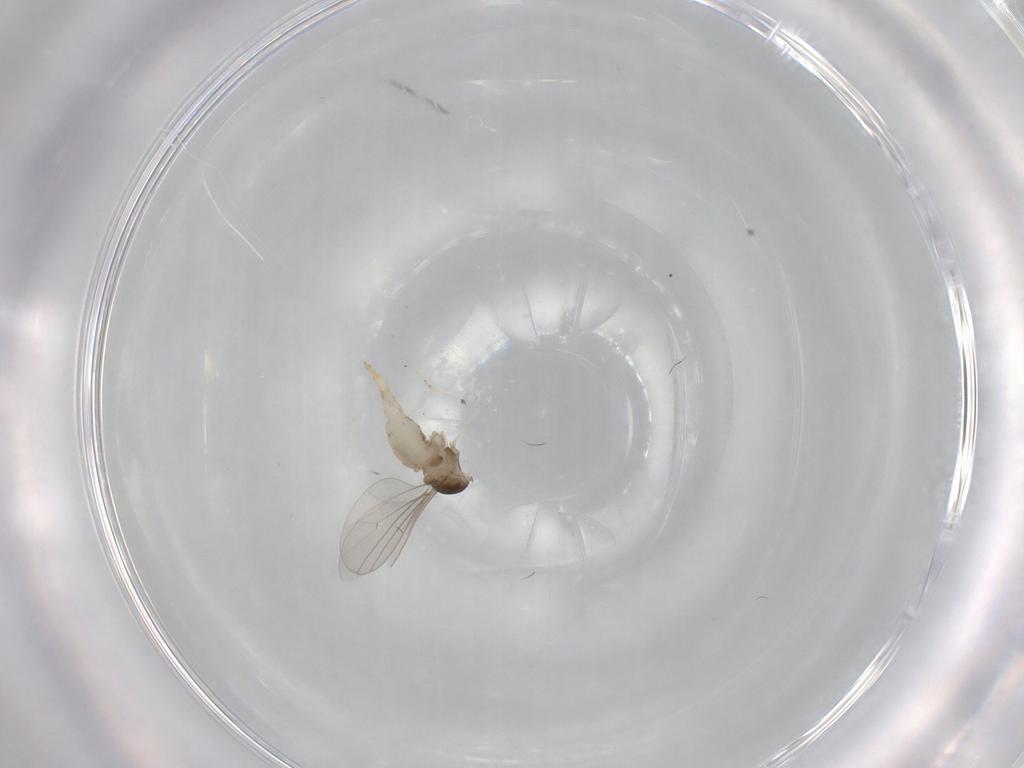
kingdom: Animalia
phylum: Arthropoda
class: Insecta
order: Diptera
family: Cecidomyiidae
